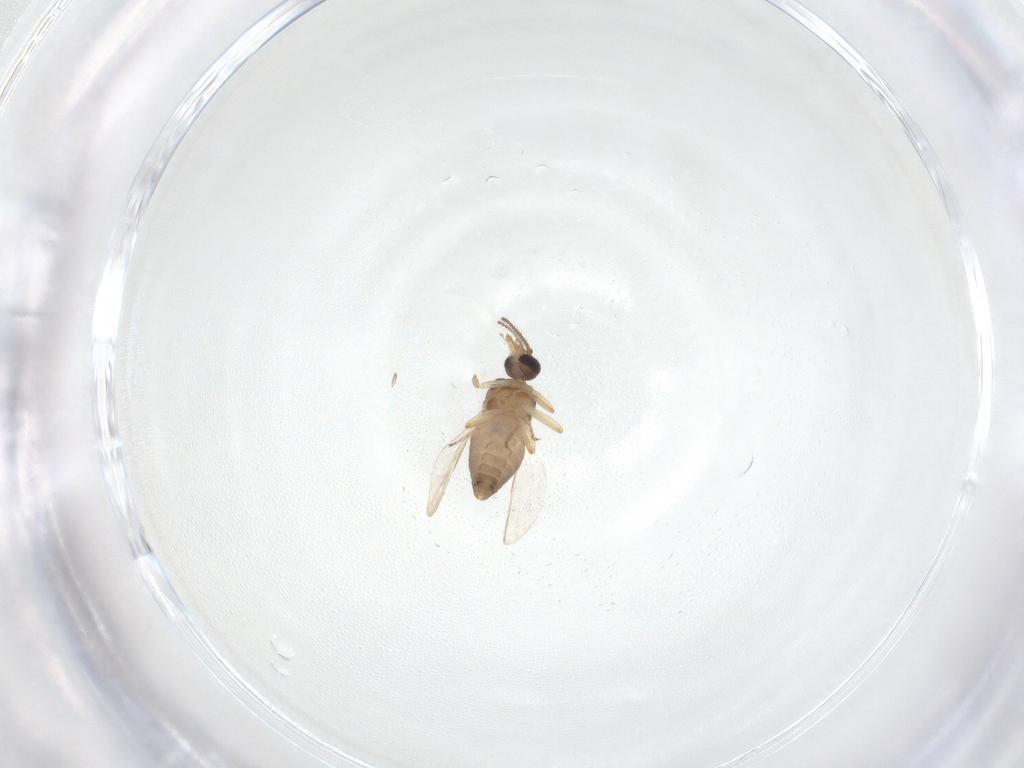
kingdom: Animalia
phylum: Arthropoda
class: Insecta
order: Diptera
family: Ceratopogonidae
